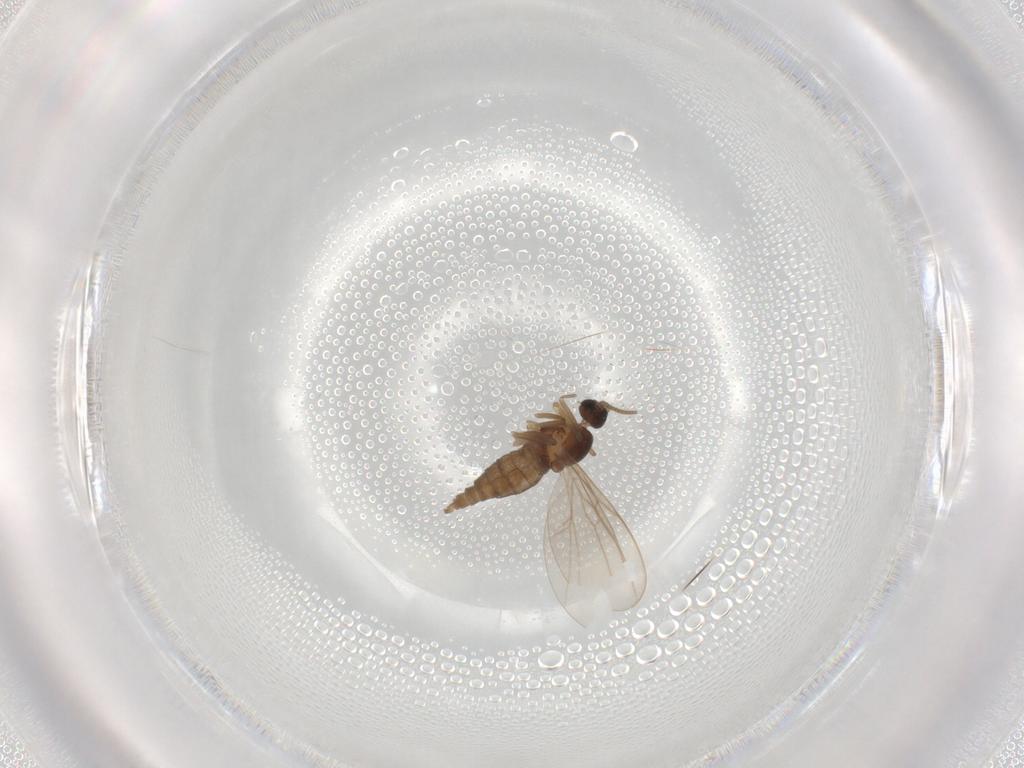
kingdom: Animalia
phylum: Arthropoda
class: Insecta
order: Diptera
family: Cecidomyiidae
